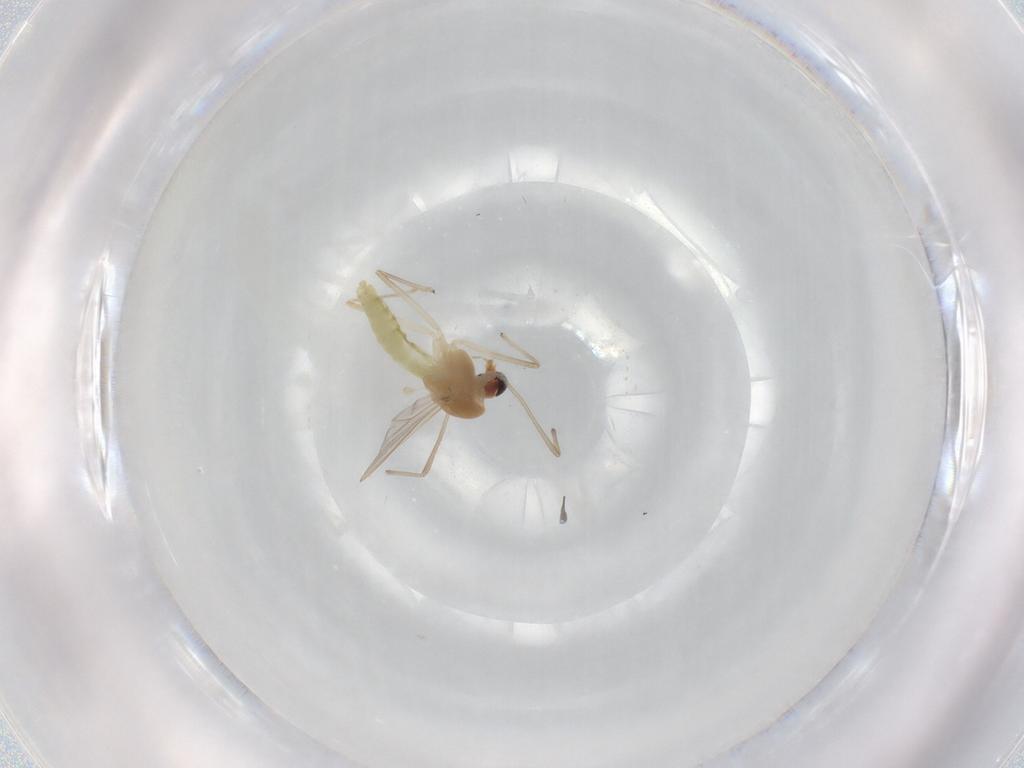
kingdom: Animalia
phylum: Arthropoda
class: Insecta
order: Diptera
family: Chironomidae
